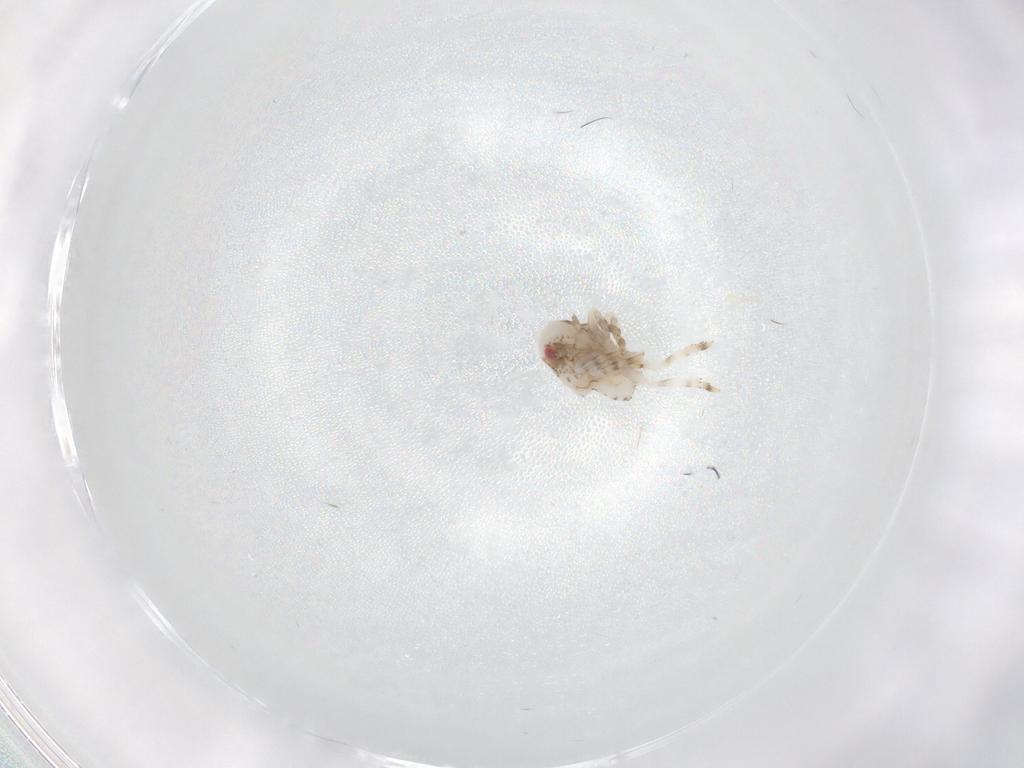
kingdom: Animalia
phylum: Arthropoda
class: Insecta
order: Hemiptera
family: Acanaloniidae
